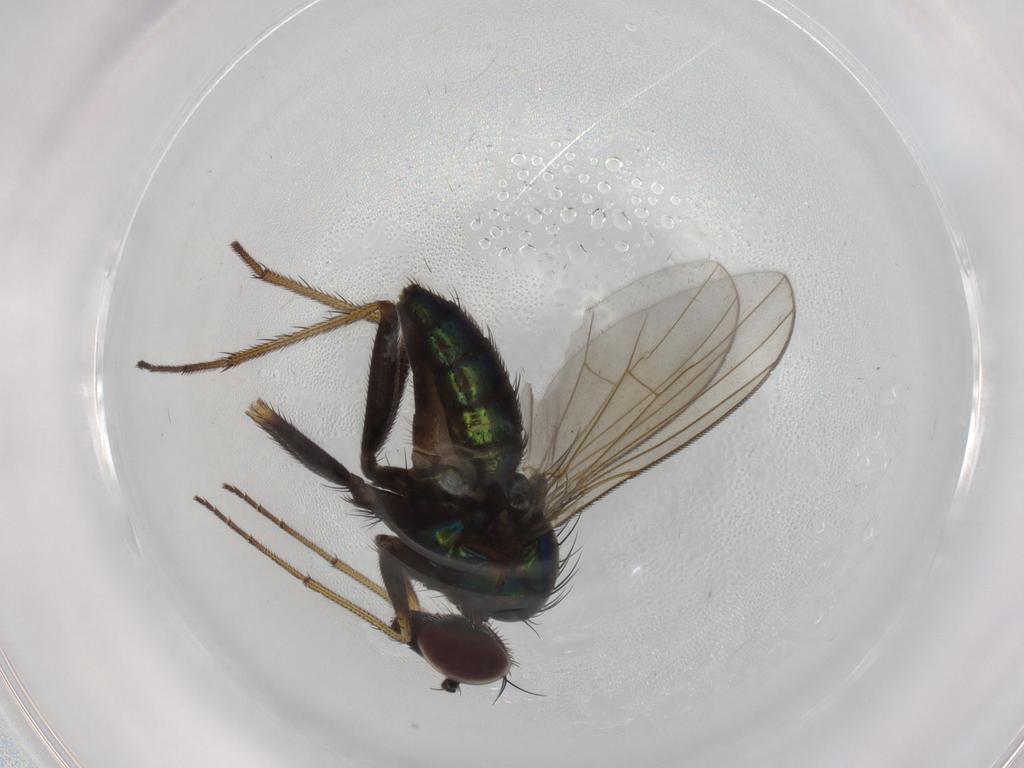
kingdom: Animalia
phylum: Arthropoda
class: Insecta
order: Diptera
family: Dolichopodidae
